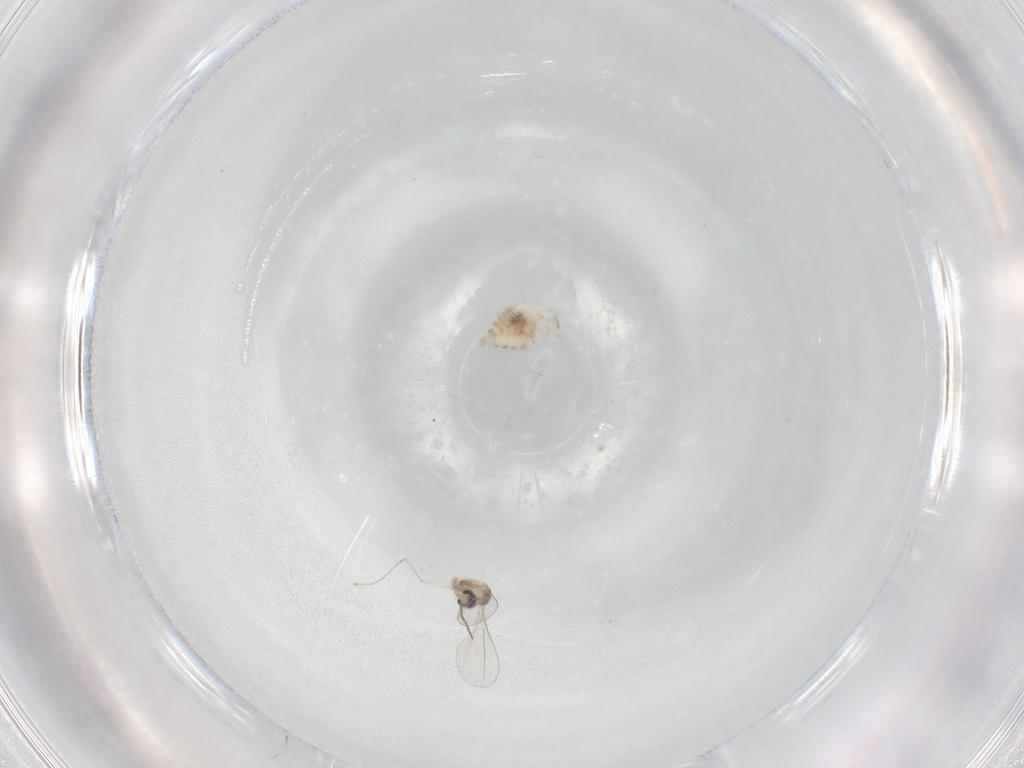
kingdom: Animalia
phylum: Arthropoda
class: Insecta
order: Diptera
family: Cecidomyiidae
